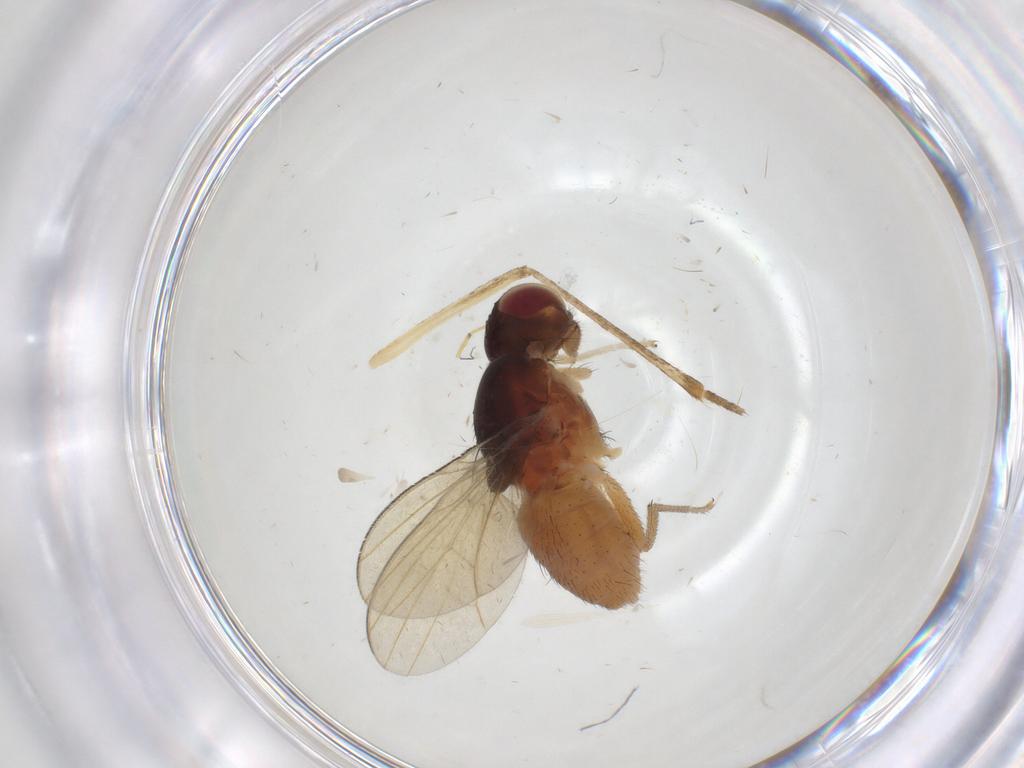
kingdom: Animalia
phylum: Arthropoda
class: Insecta
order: Diptera
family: Lauxaniidae
